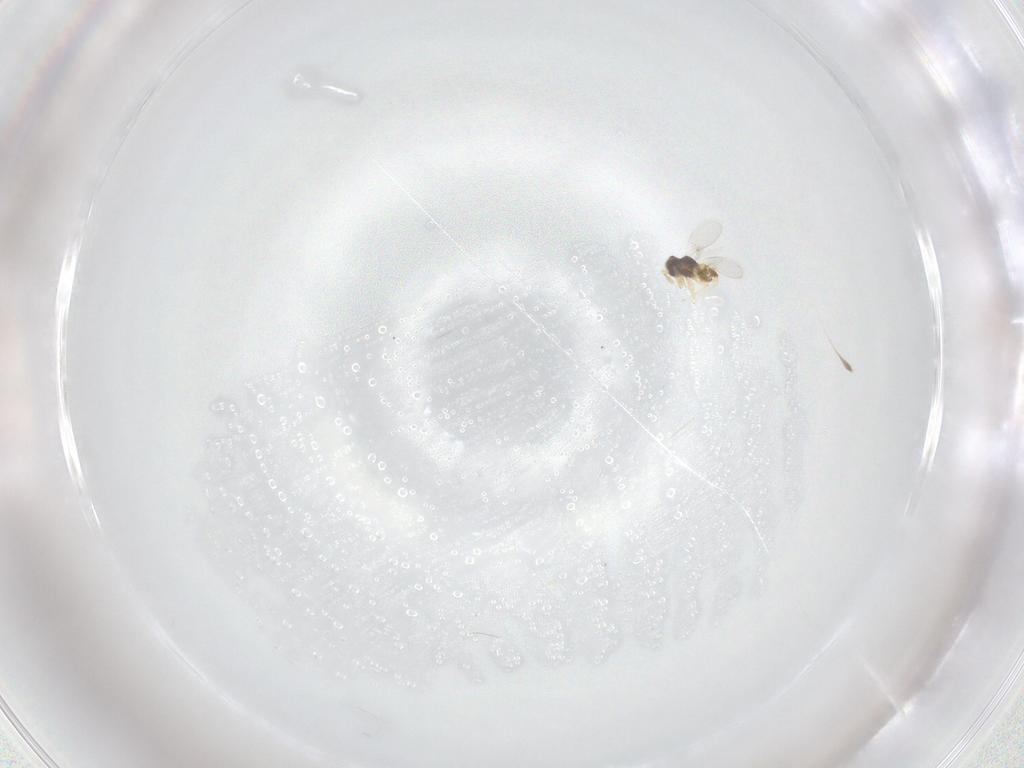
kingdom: Animalia
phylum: Arthropoda
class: Insecta
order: Hymenoptera
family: Encyrtidae
